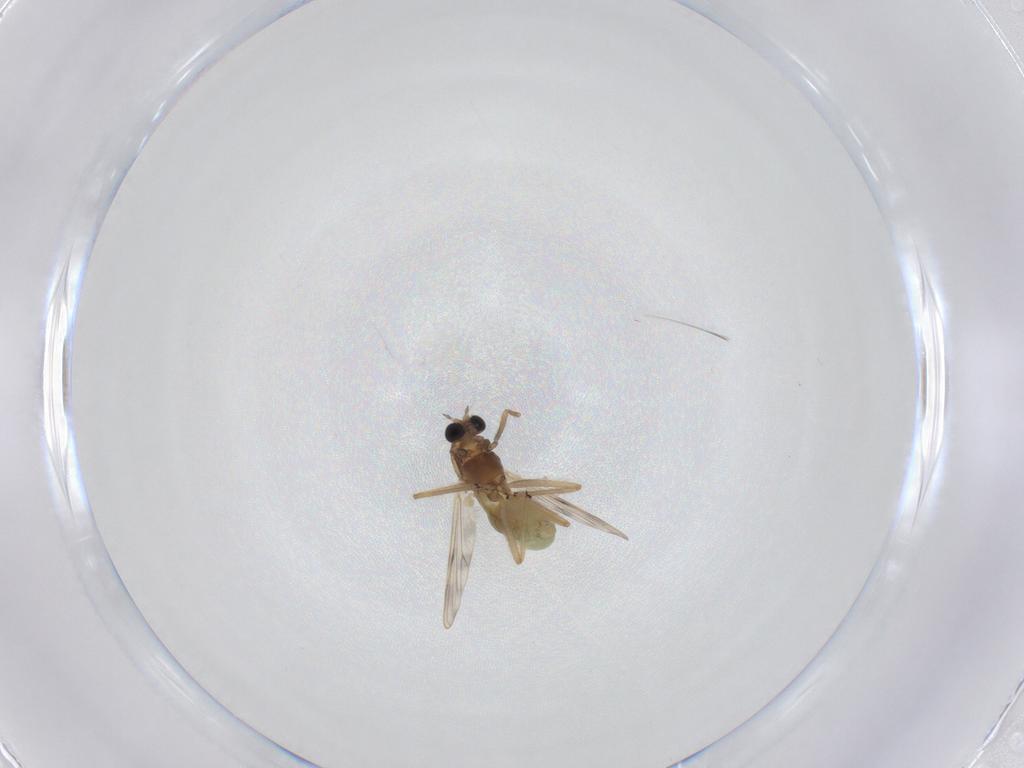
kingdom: Animalia
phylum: Arthropoda
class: Insecta
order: Diptera
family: Chironomidae
